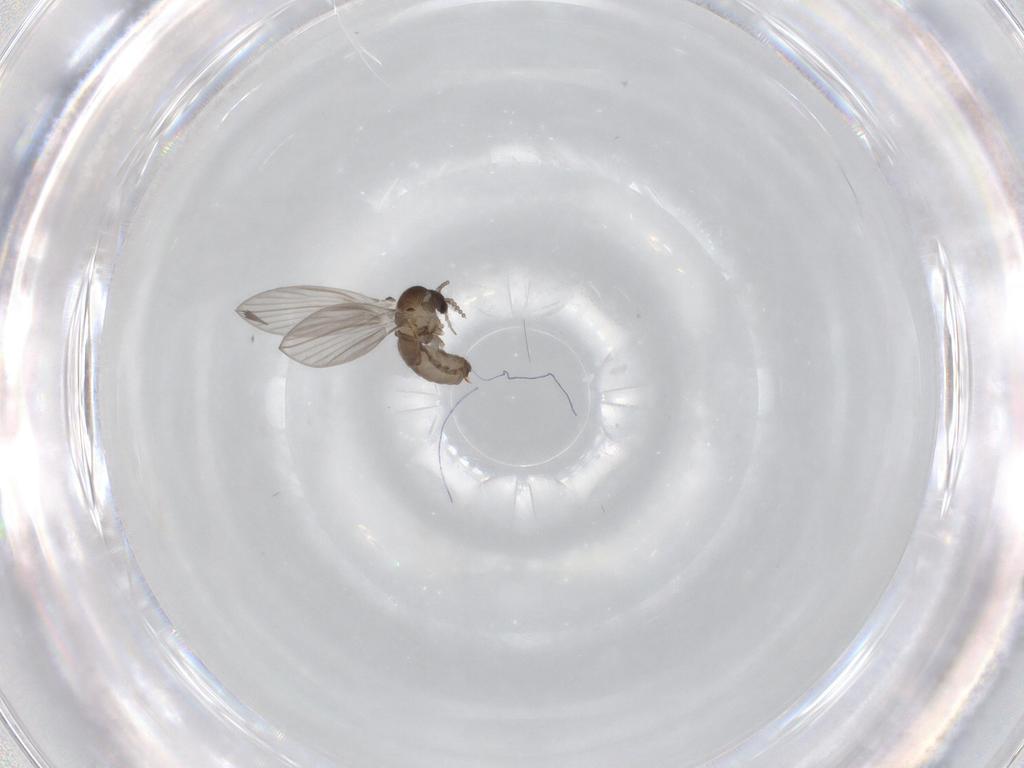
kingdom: Animalia
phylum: Arthropoda
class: Insecta
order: Diptera
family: Psychodidae
